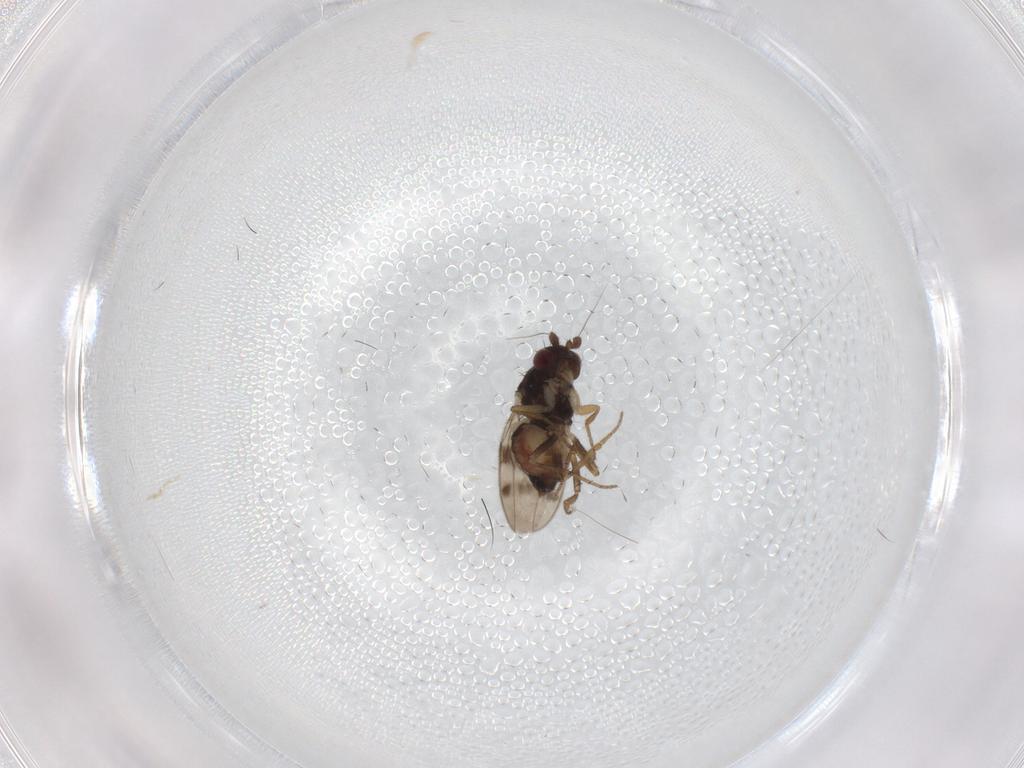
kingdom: Animalia
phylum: Arthropoda
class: Insecta
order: Diptera
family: Sphaeroceridae
